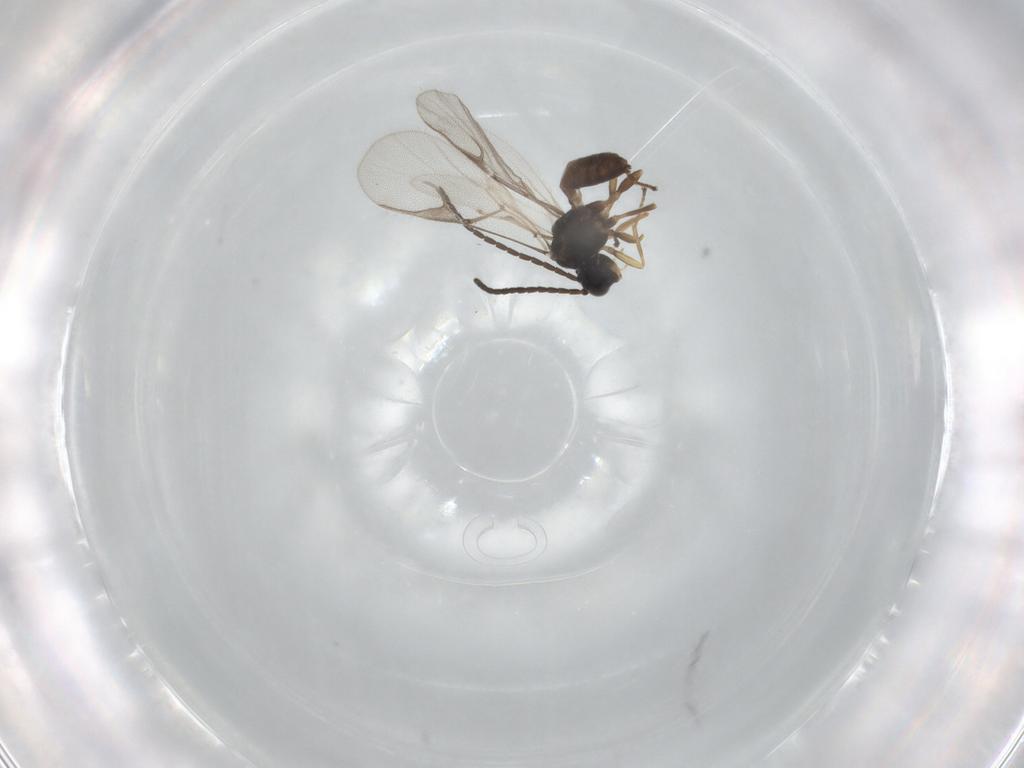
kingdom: Animalia
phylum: Arthropoda
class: Insecta
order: Hymenoptera
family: Braconidae
